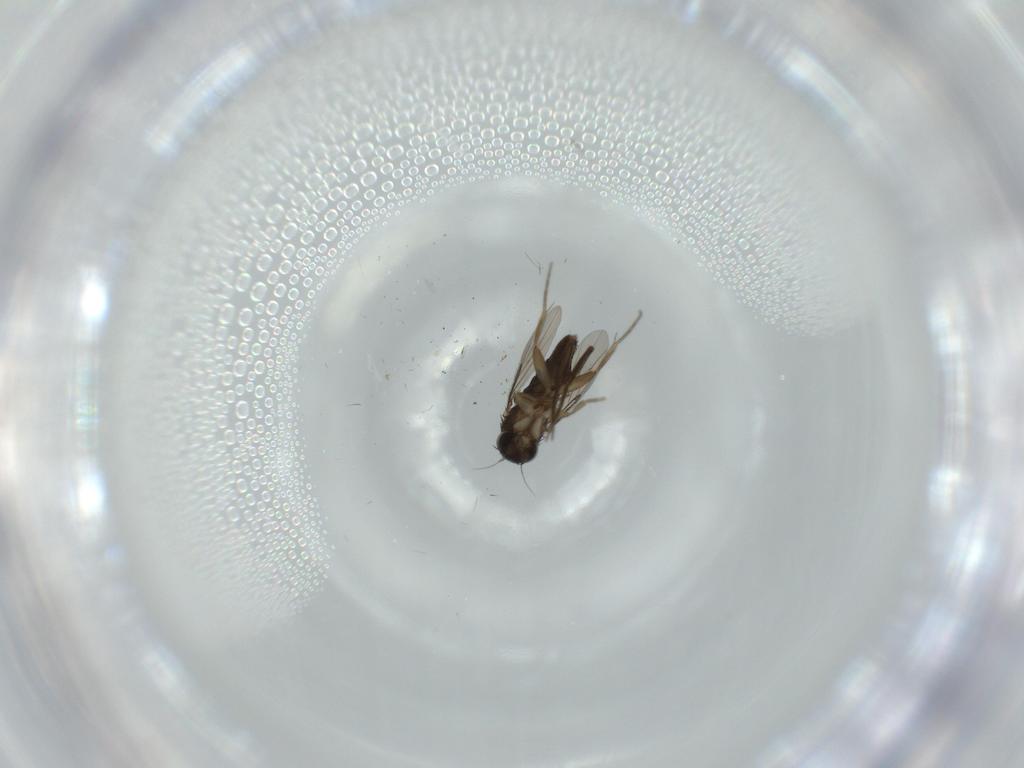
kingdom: Animalia
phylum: Arthropoda
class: Insecta
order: Diptera
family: Phoridae
